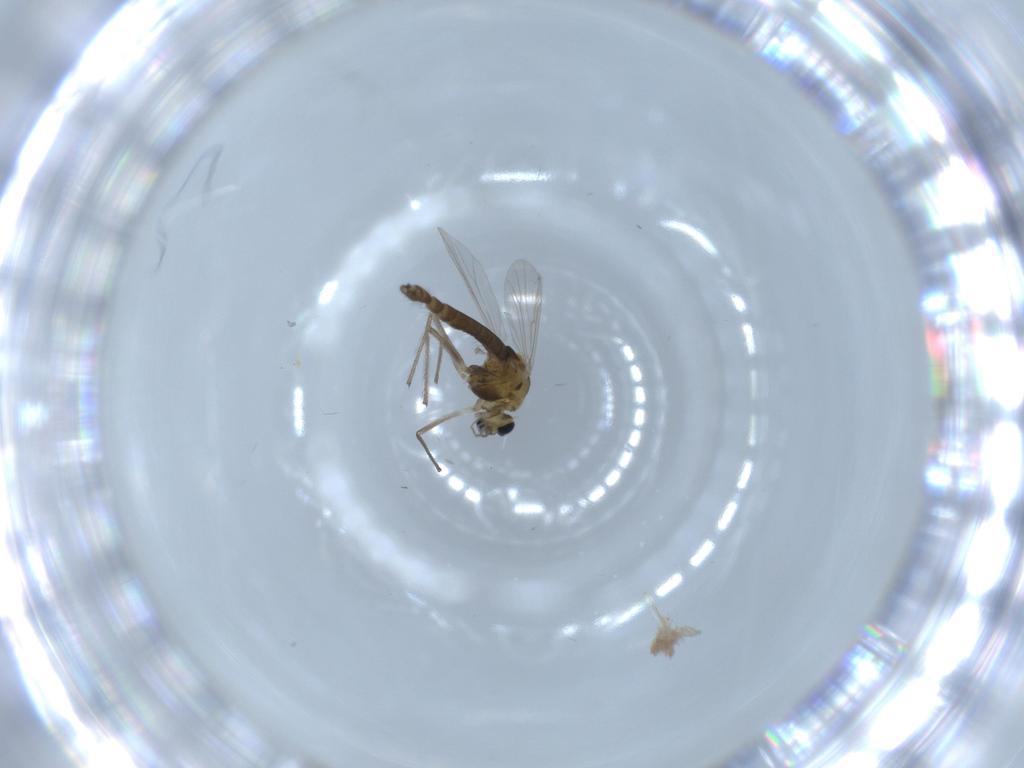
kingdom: Animalia
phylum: Arthropoda
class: Insecta
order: Diptera
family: Chironomidae
